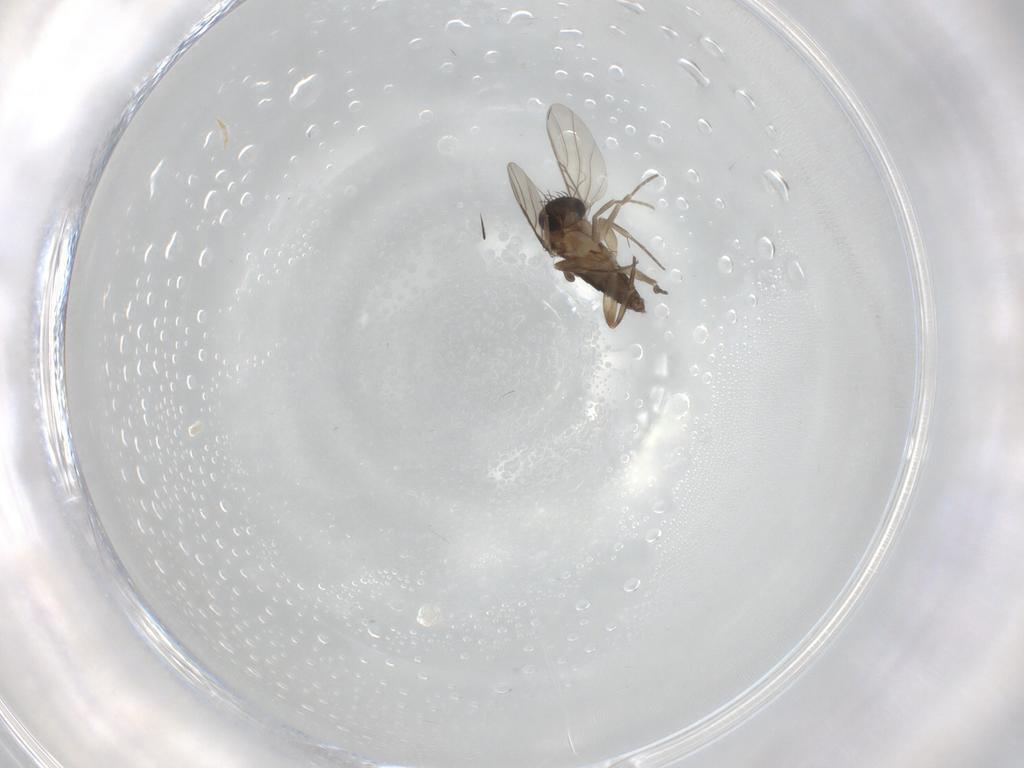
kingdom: Animalia
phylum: Arthropoda
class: Insecta
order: Diptera
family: Phoridae
